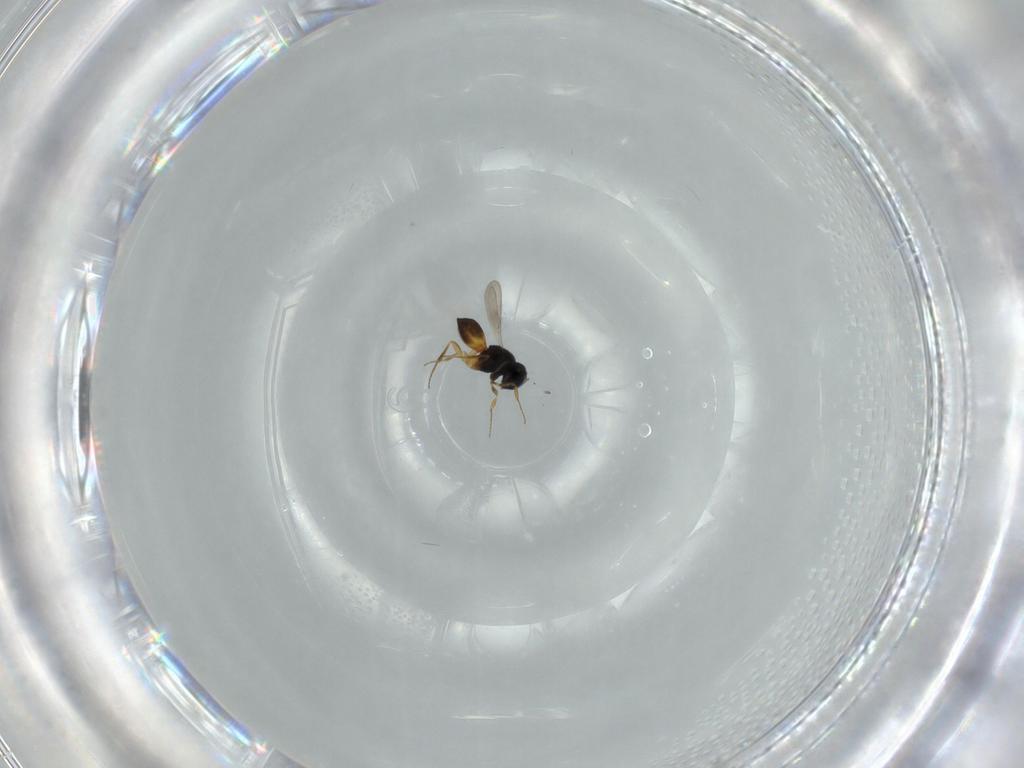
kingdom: Animalia
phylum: Arthropoda
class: Insecta
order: Hymenoptera
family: Scelionidae
